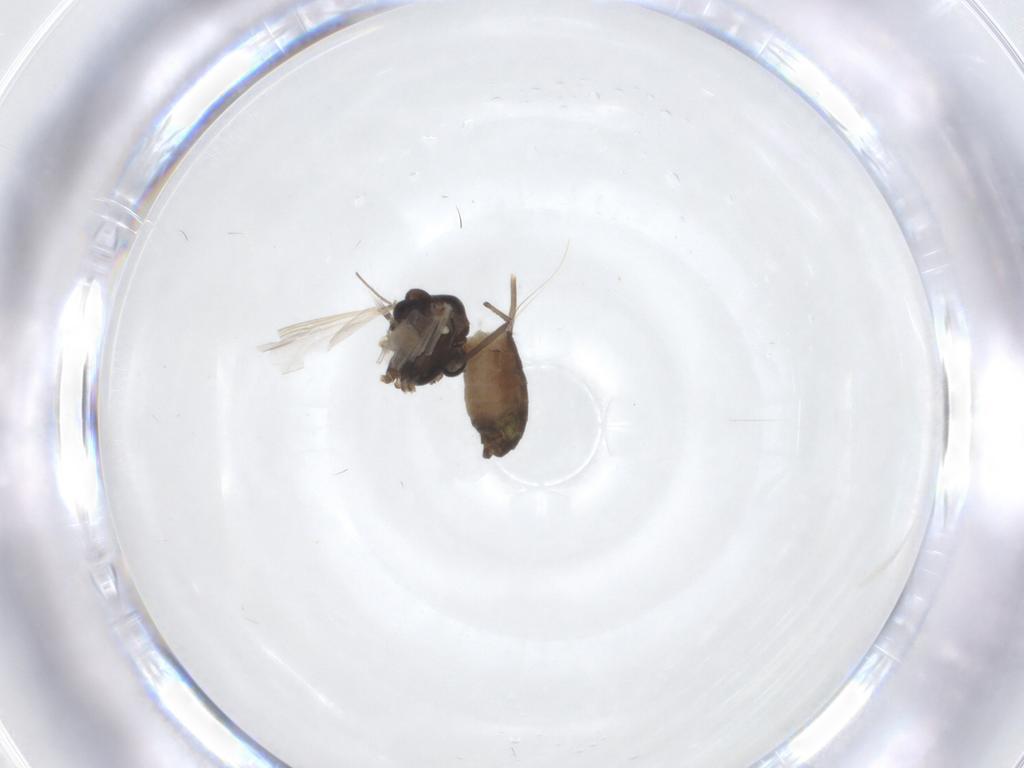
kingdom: Animalia
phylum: Arthropoda
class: Insecta
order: Diptera
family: Chironomidae
